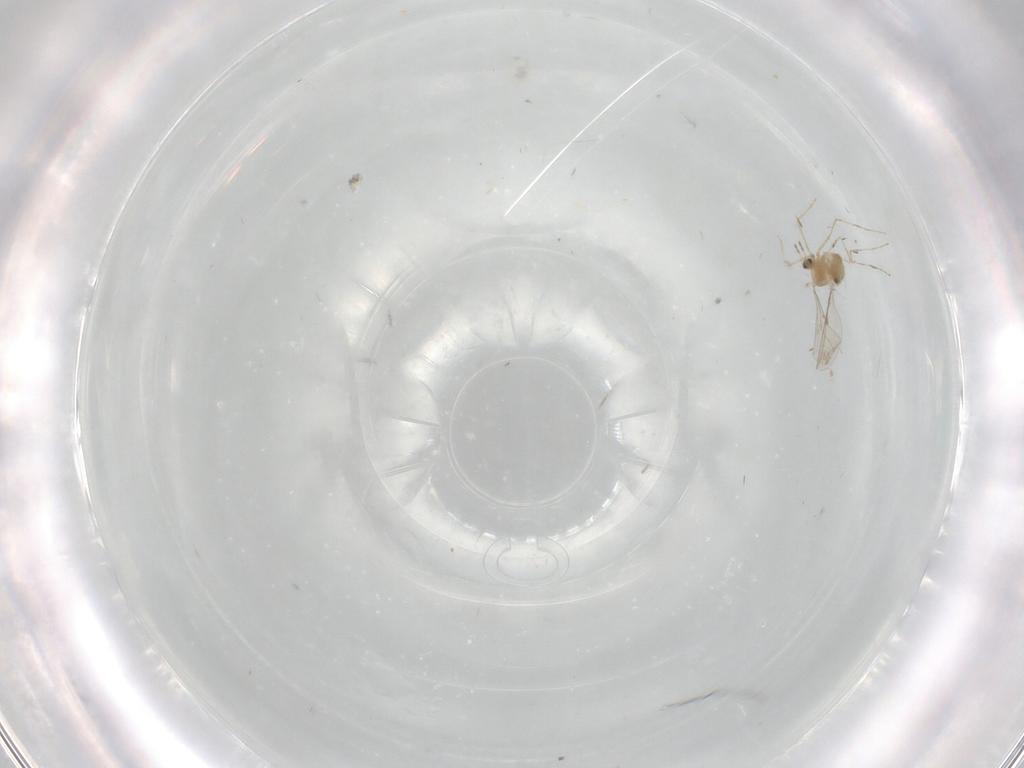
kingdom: Animalia
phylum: Arthropoda
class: Insecta
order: Diptera
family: Cecidomyiidae
